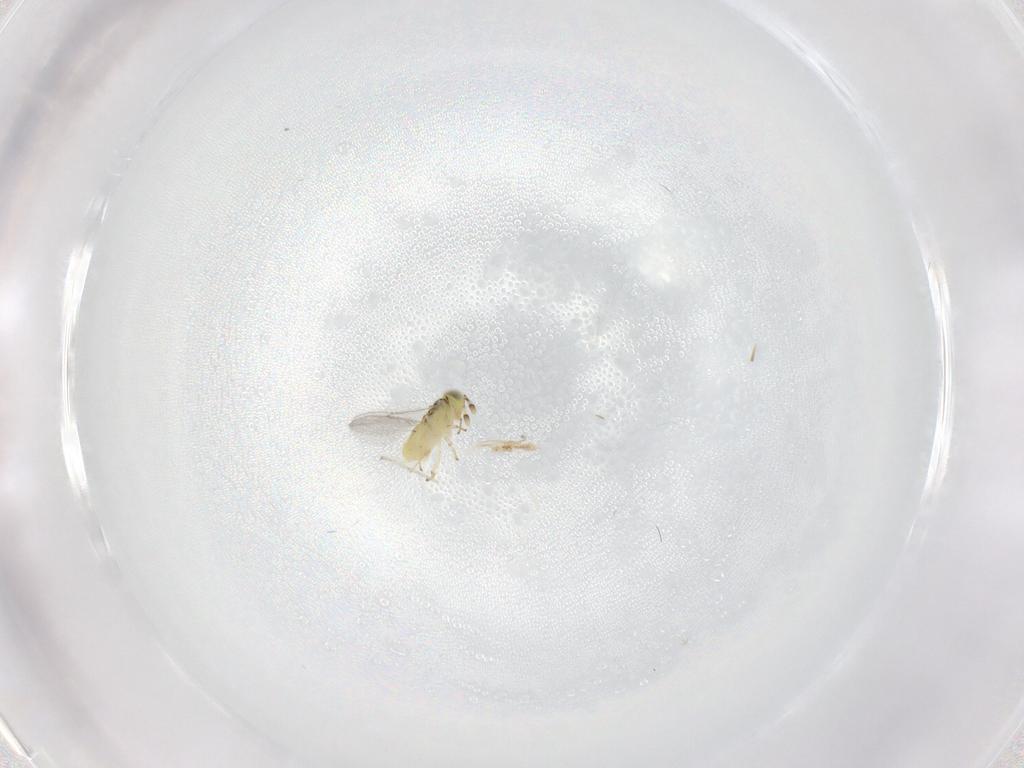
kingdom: Animalia
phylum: Arthropoda
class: Insecta
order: Hymenoptera
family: Encyrtidae
